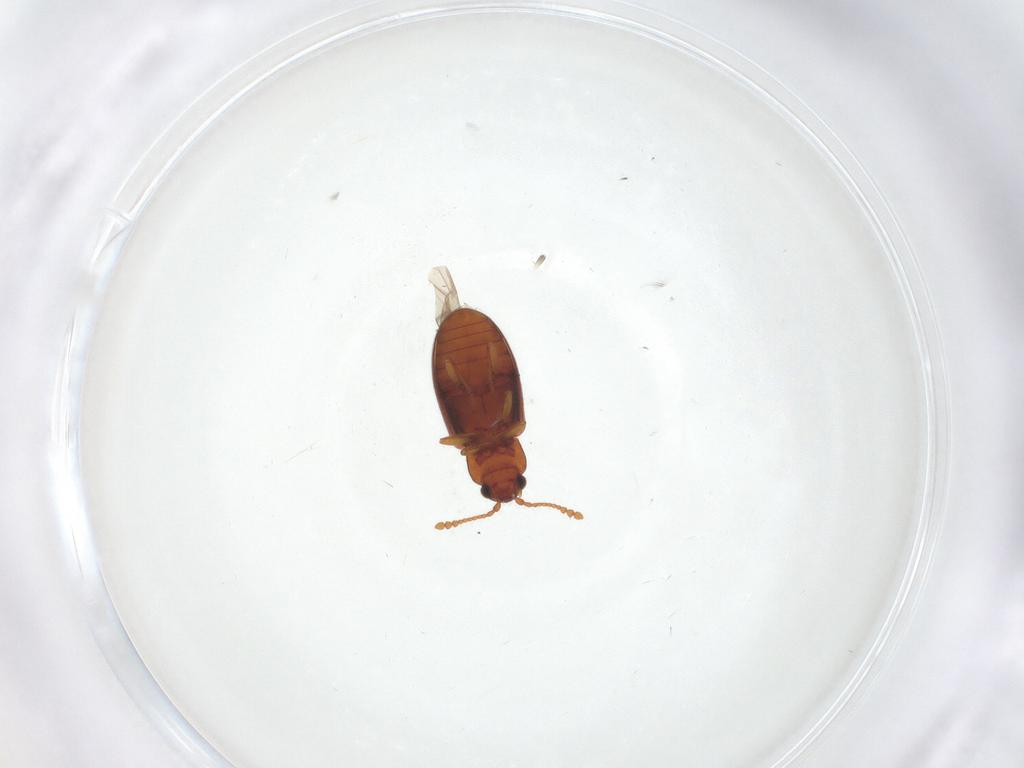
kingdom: Animalia
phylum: Arthropoda
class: Insecta
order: Coleoptera
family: Cryptophagidae
